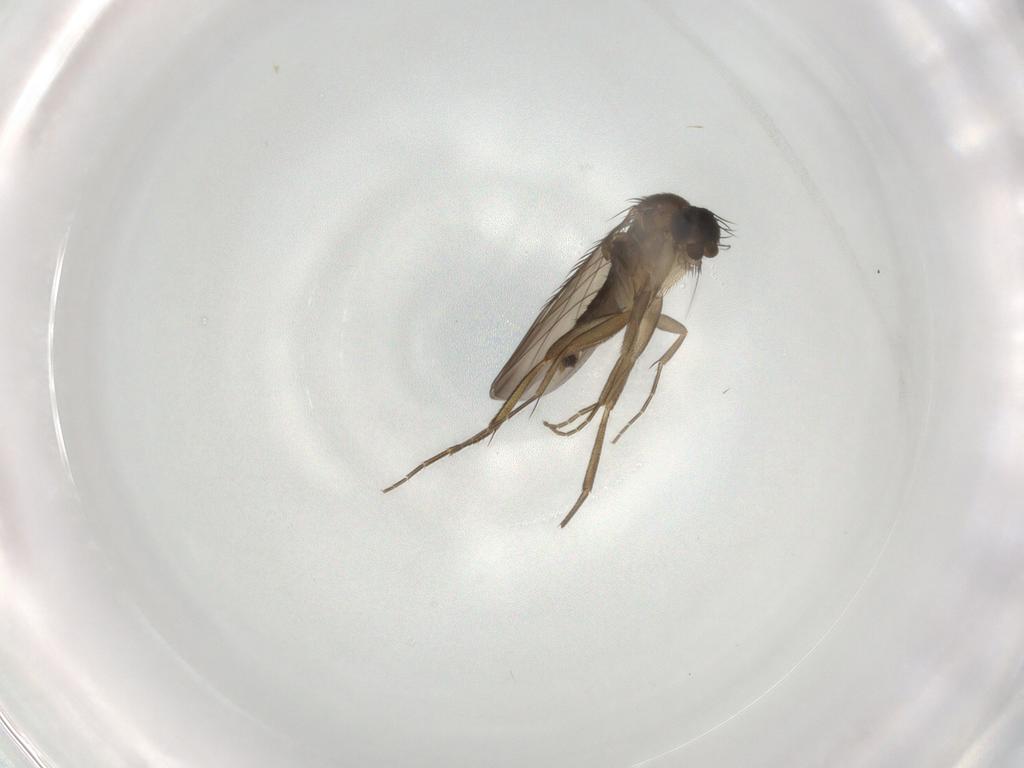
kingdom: Animalia
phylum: Arthropoda
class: Insecta
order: Diptera
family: Phoridae
